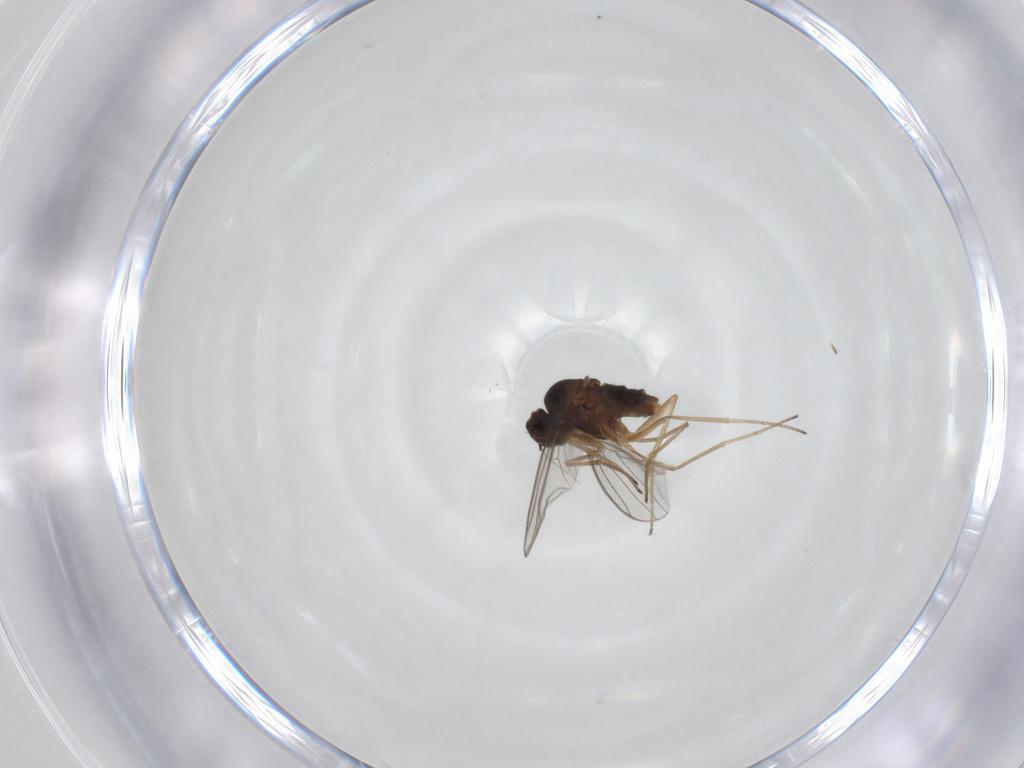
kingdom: Animalia
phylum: Arthropoda
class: Insecta
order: Diptera
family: Dolichopodidae
